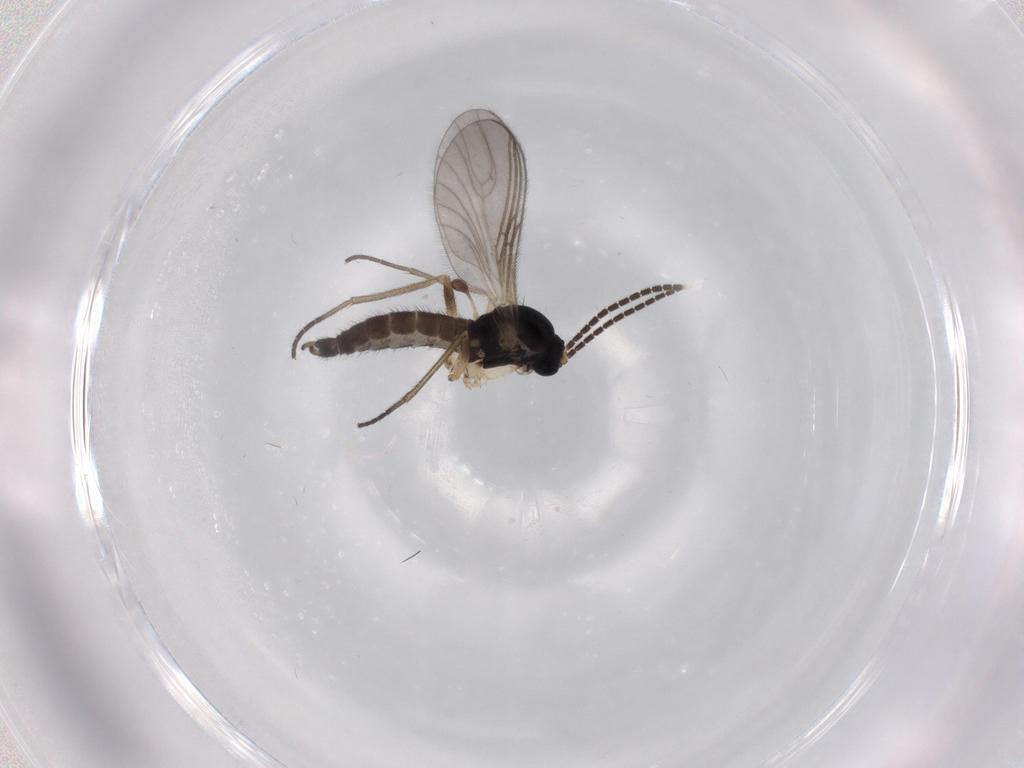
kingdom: Animalia
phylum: Arthropoda
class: Insecta
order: Diptera
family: Sciaridae
